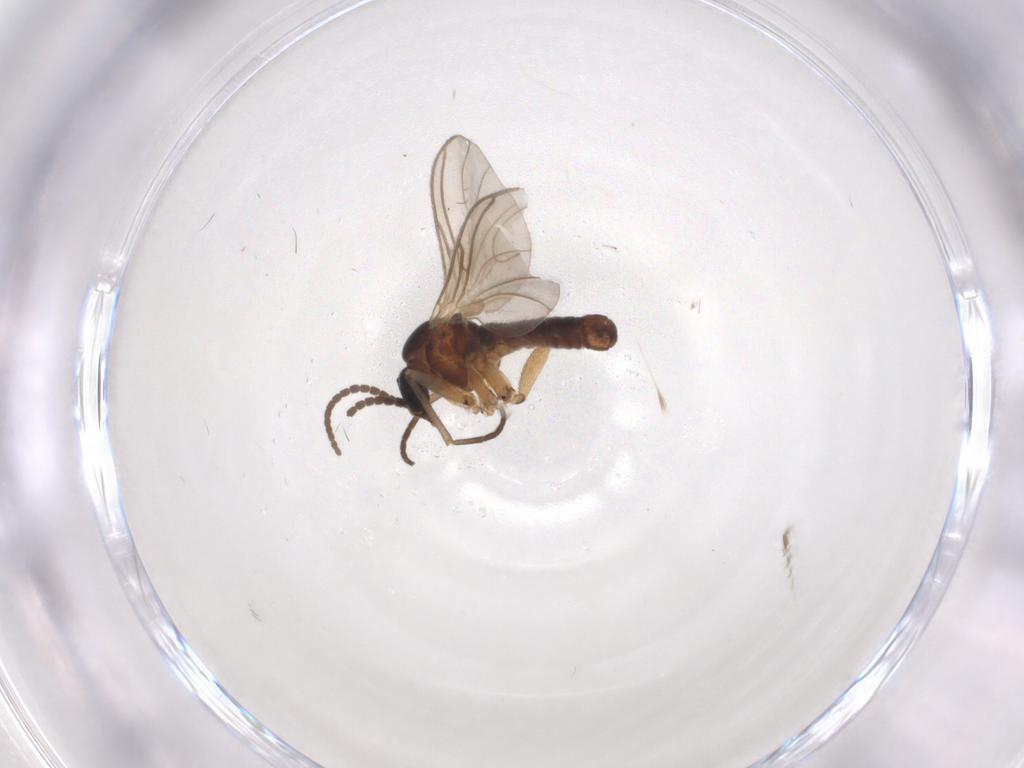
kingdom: Animalia
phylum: Arthropoda
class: Insecta
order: Diptera
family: Sciaridae
